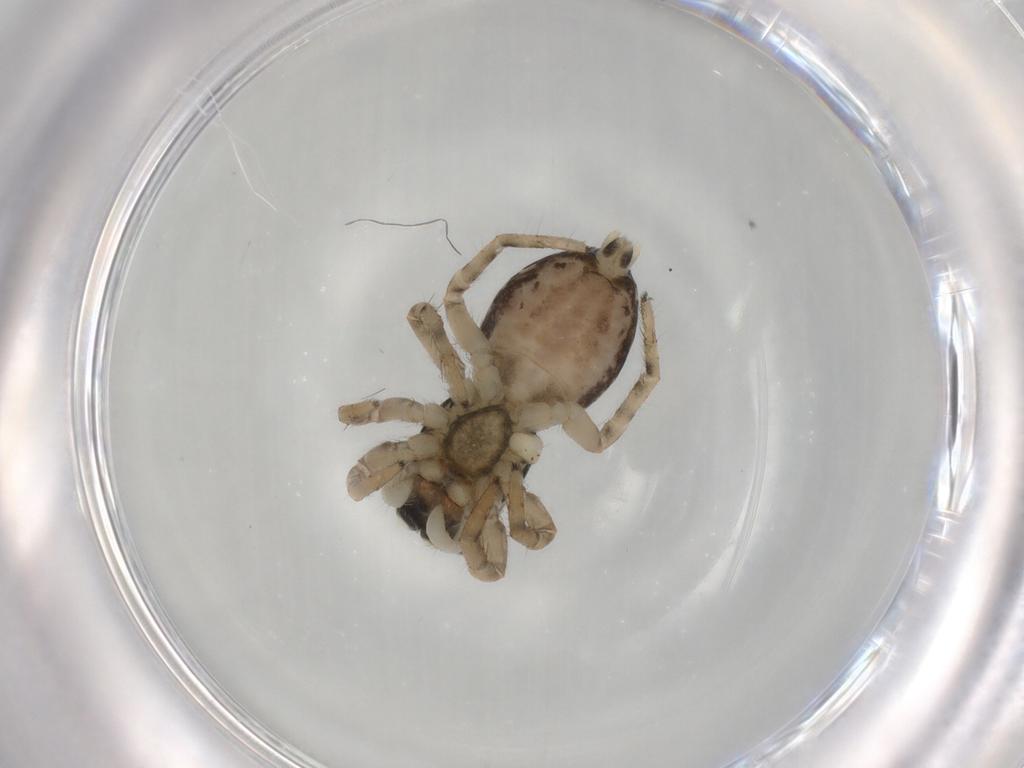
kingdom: Animalia
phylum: Arthropoda
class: Arachnida
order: Araneae
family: Salticidae
